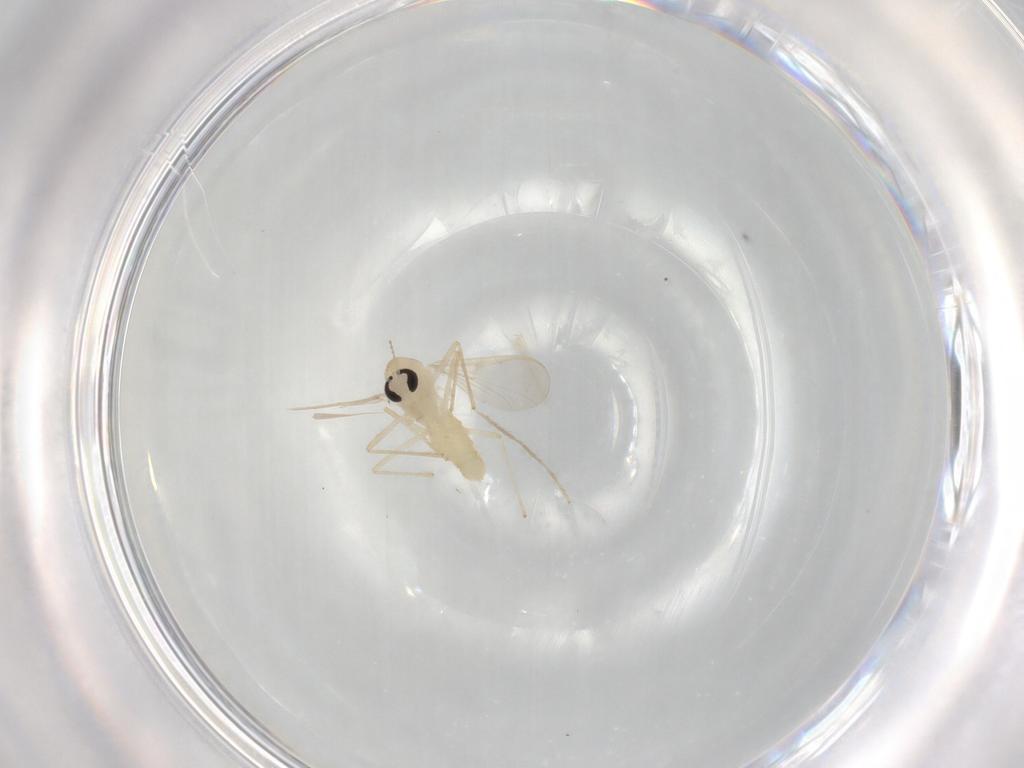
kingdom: Animalia
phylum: Arthropoda
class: Insecta
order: Diptera
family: Chironomidae
